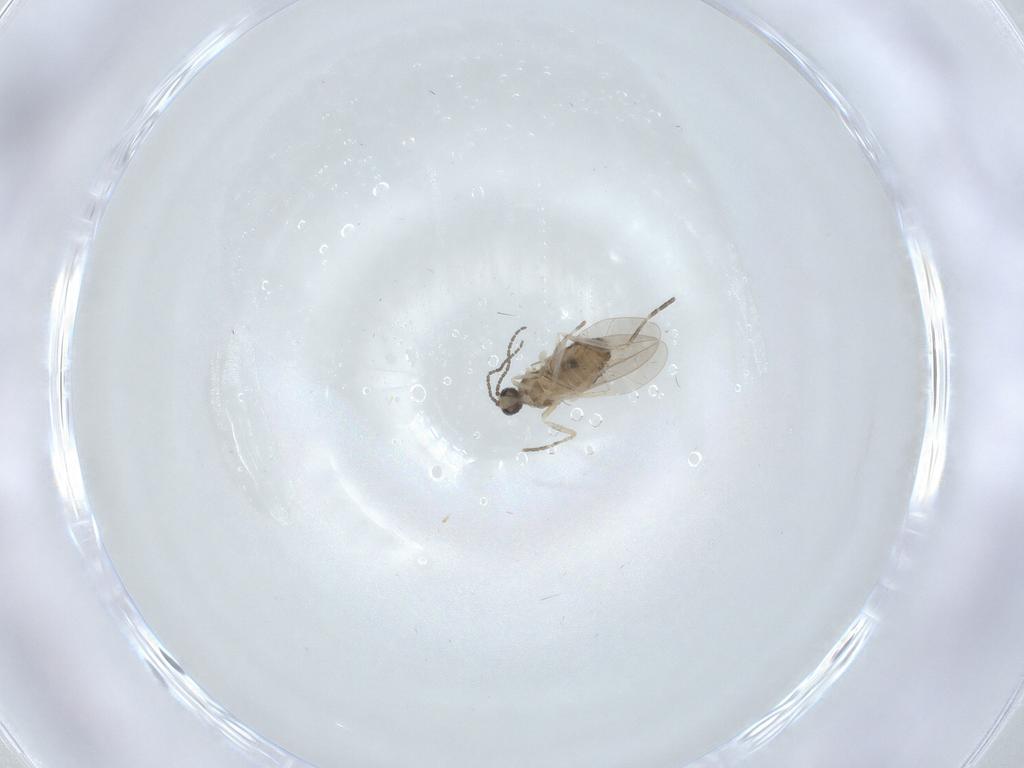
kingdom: Animalia
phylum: Arthropoda
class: Insecta
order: Diptera
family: Cecidomyiidae
